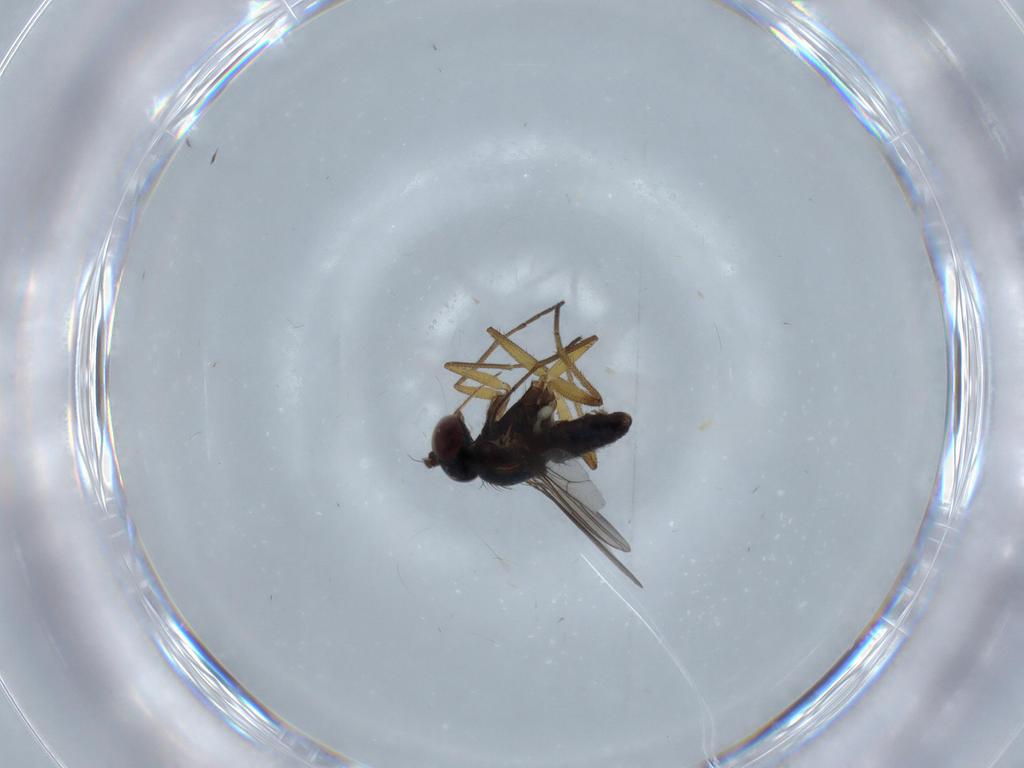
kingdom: Animalia
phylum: Arthropoda
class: Insecta
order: Diptera
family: Dolichopodidae
